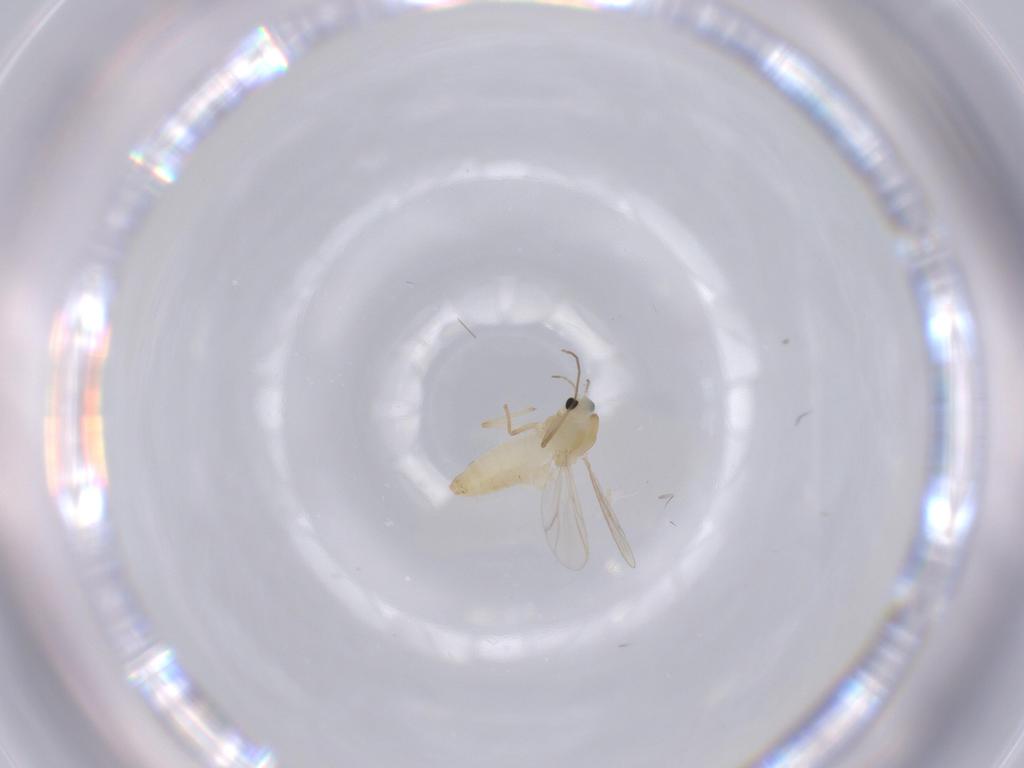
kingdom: Animalia
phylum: Arthropoda
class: Insecta
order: Diptera
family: Chironomidae
